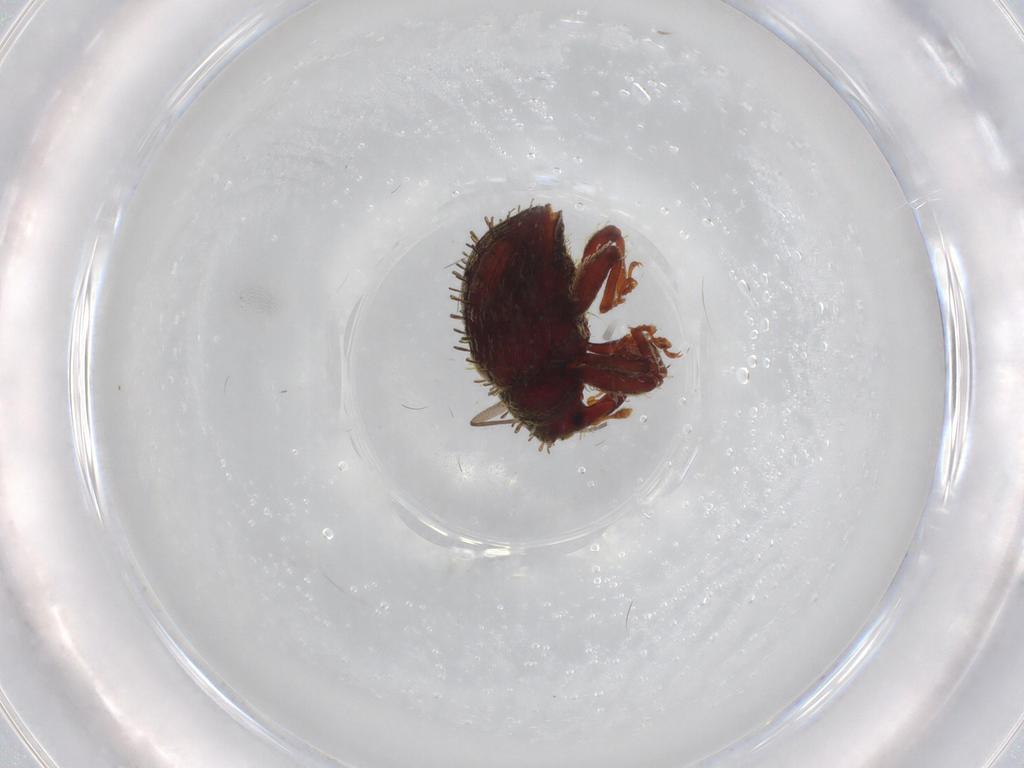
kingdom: Animalia
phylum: Arthropoda
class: Insecta
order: Coleoptera
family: Curculionidae
